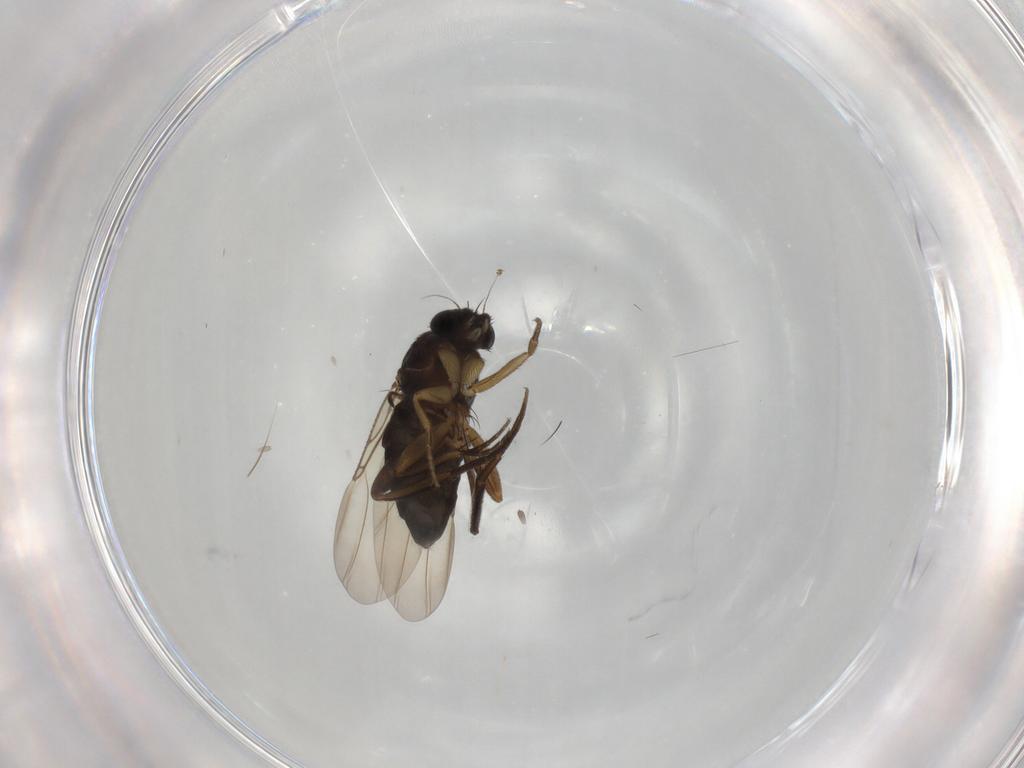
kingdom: Animalia
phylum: Arthropoda
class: Insecta
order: Diptera
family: Phoridae
